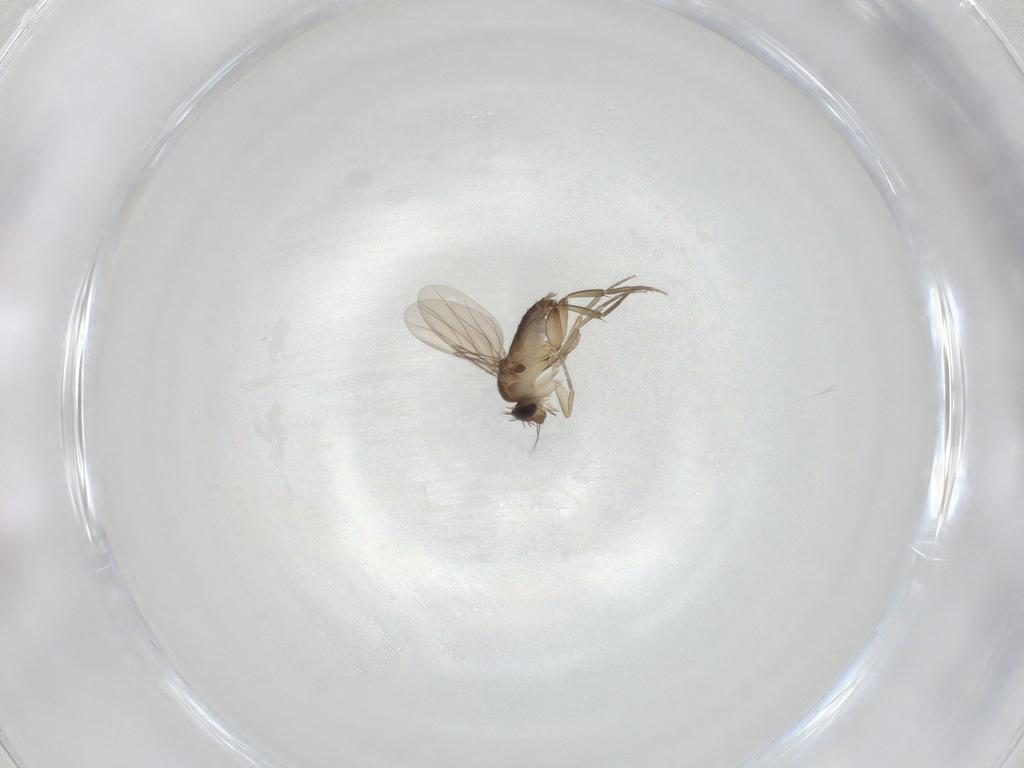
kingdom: Animalia
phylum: Arthropoda
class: Insecta
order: Diptera
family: Phoridae
